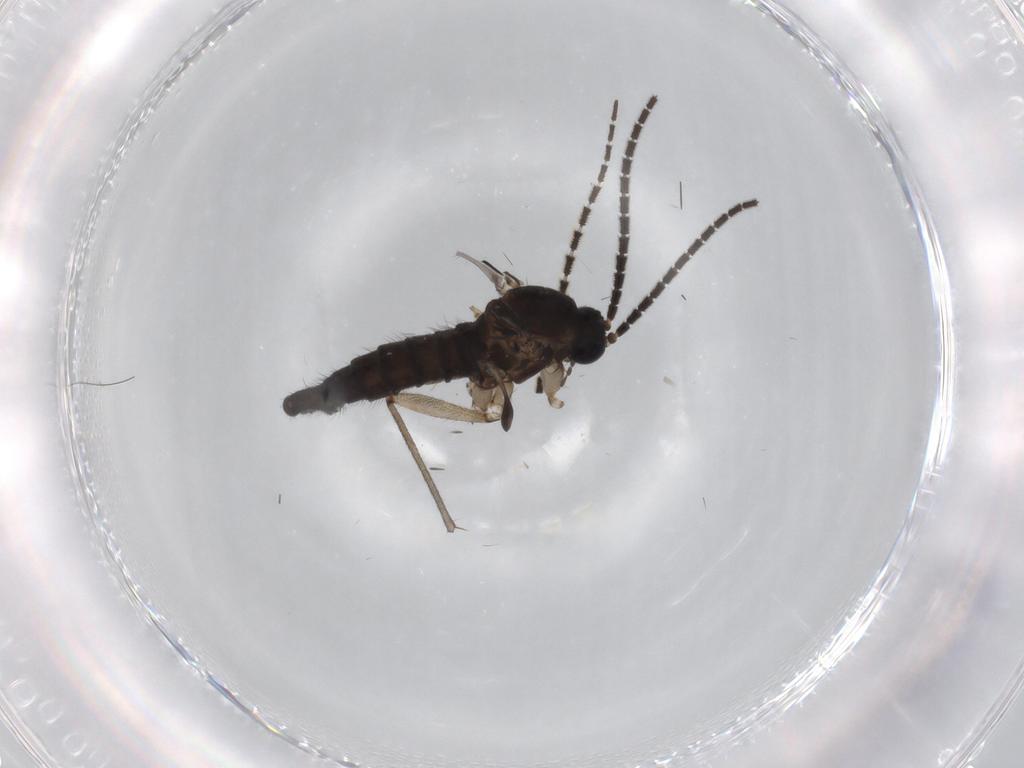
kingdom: Animalia
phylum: Arthropoda
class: Insecta
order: Diptera
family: Sciaridae
